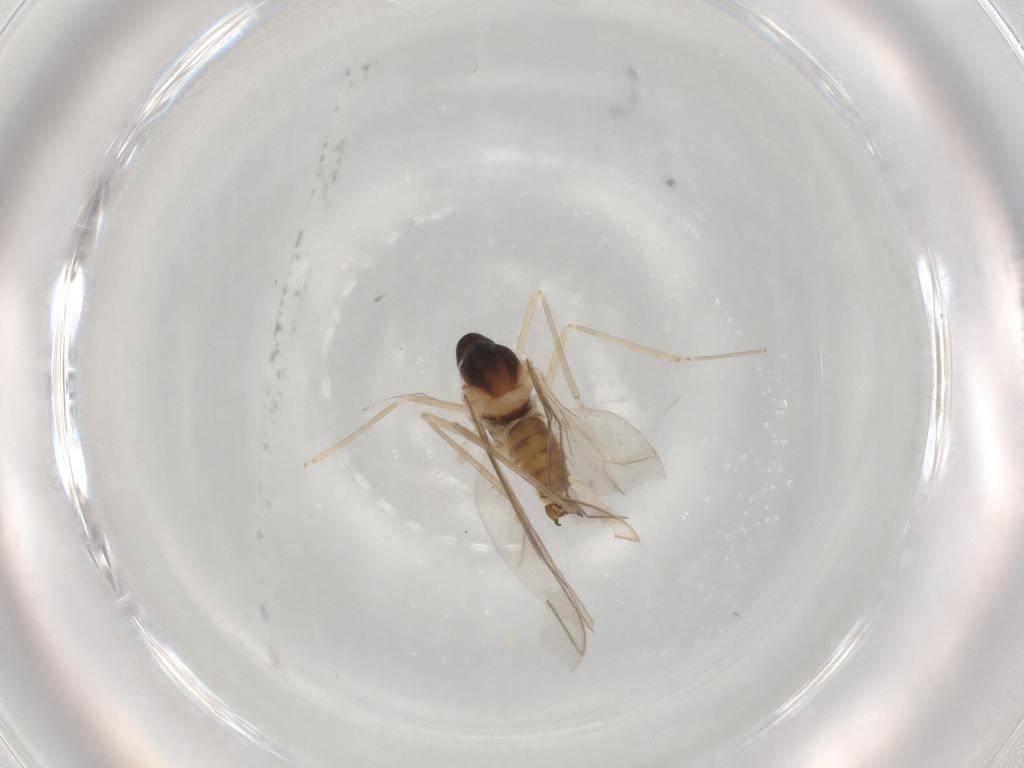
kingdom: Animalia
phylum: Arthropoda
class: Insecta
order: Diptera
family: Cecidomyiidae
